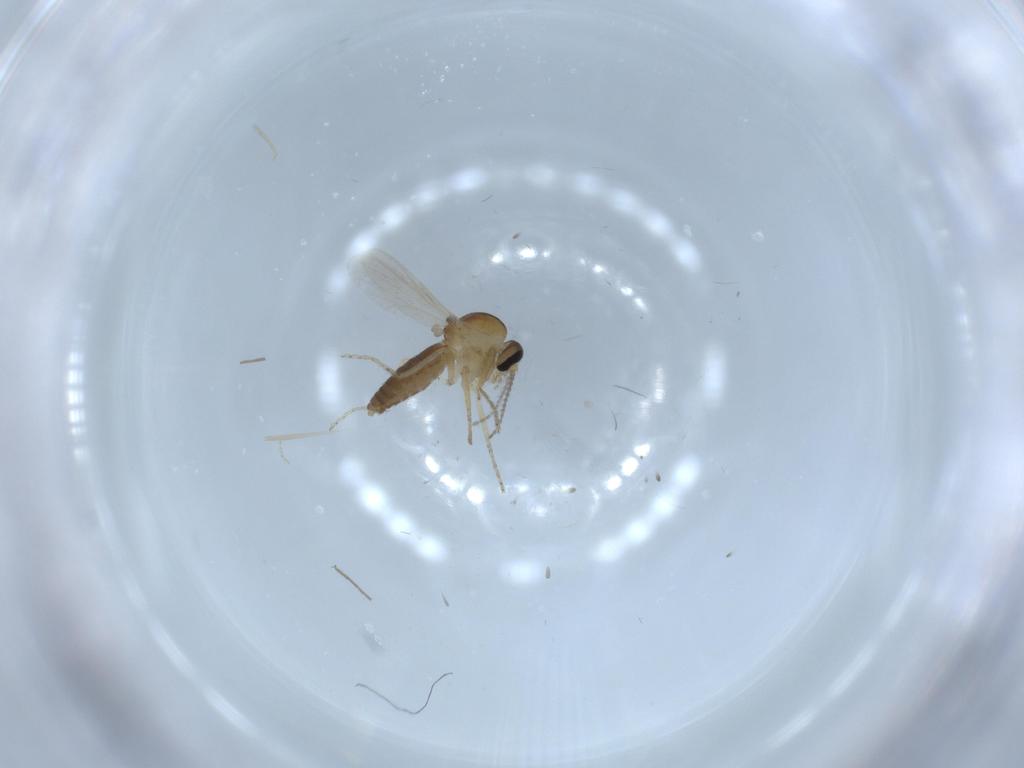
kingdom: Animalia
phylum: Arthropoda
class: Insecta
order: Diptera
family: Ceratopogonidae
